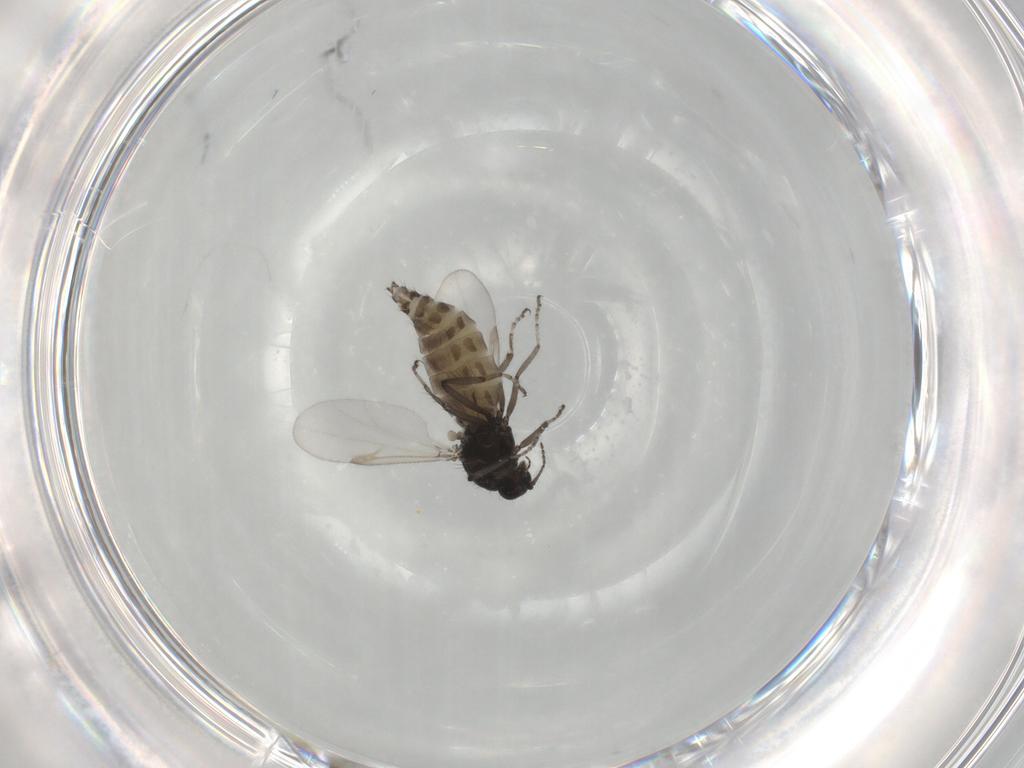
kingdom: Animalia
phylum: Arthropoda
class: Insecta
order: Diptera
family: Ceratopogonidae
